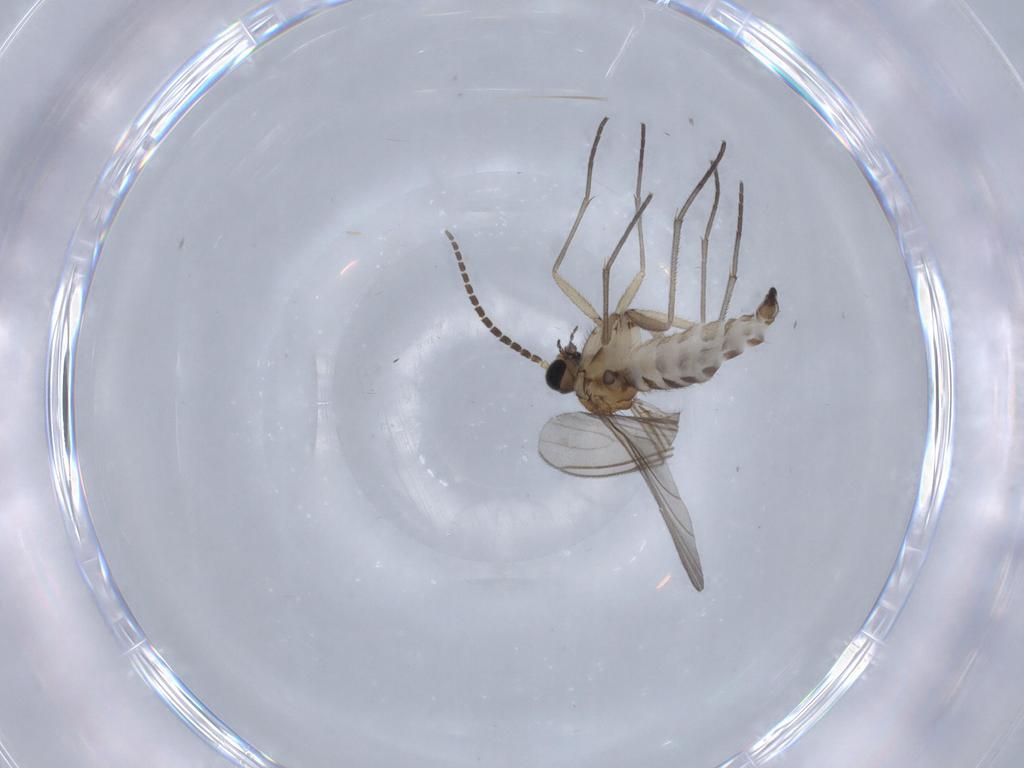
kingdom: Animalia
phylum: Arthropoda
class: Insecta
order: Diptera
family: Sciaridae
